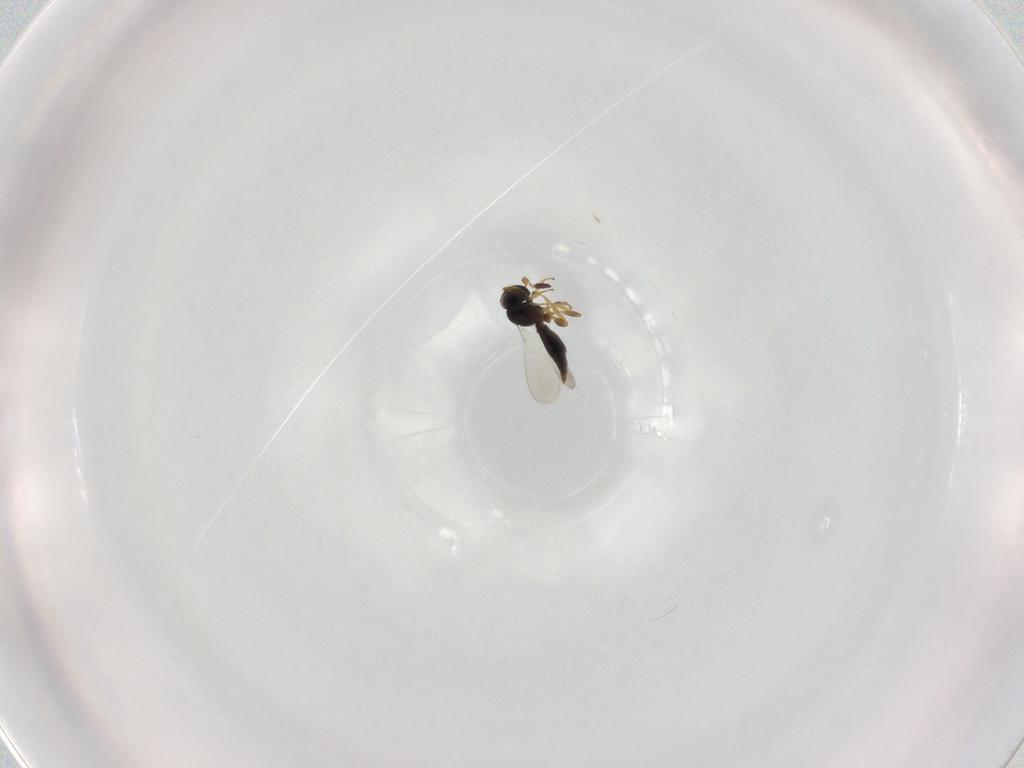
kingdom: Animalia
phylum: Arthropoda
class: Insecta
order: Hymenoptera
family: Platygastridae
